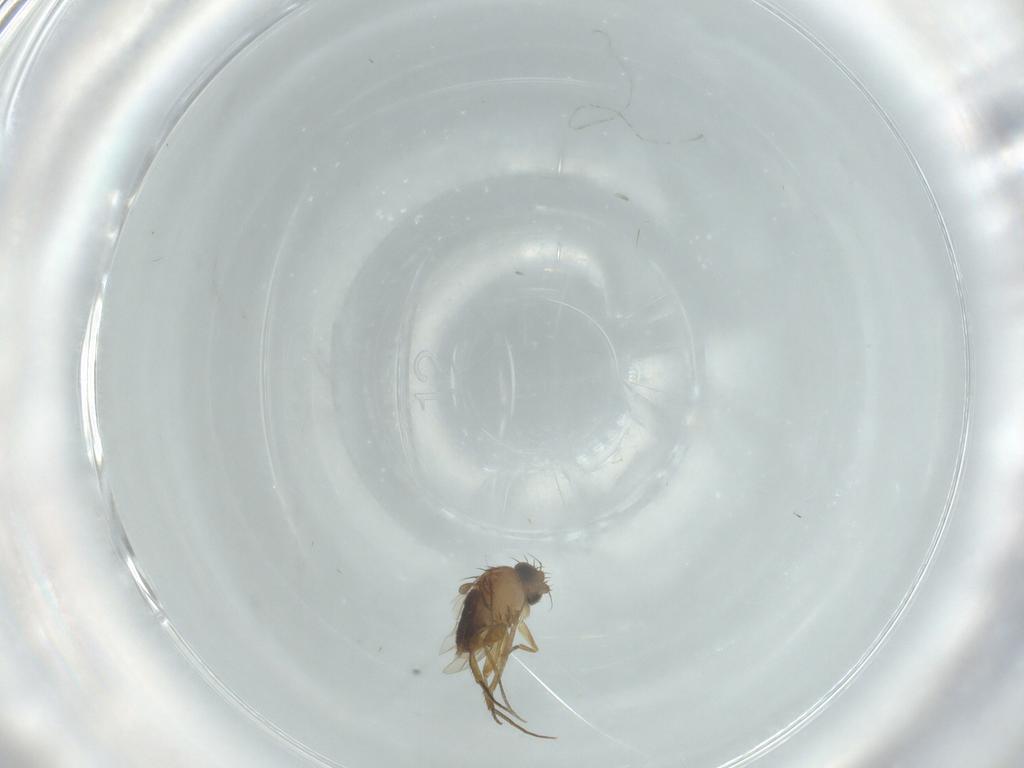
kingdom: Animalia
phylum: Arthropoda
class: Insecta
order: Diptera
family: Phoridae
